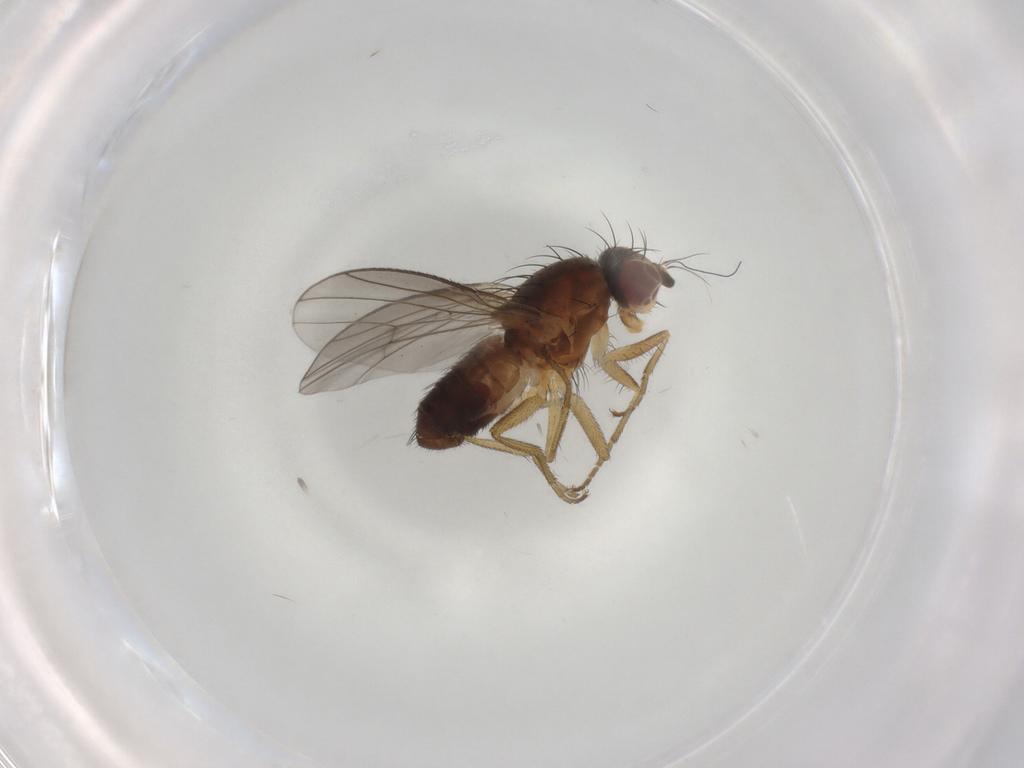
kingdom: Animalia
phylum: Arthropoda
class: Insecta
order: Diptera
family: Heleomyzidae
